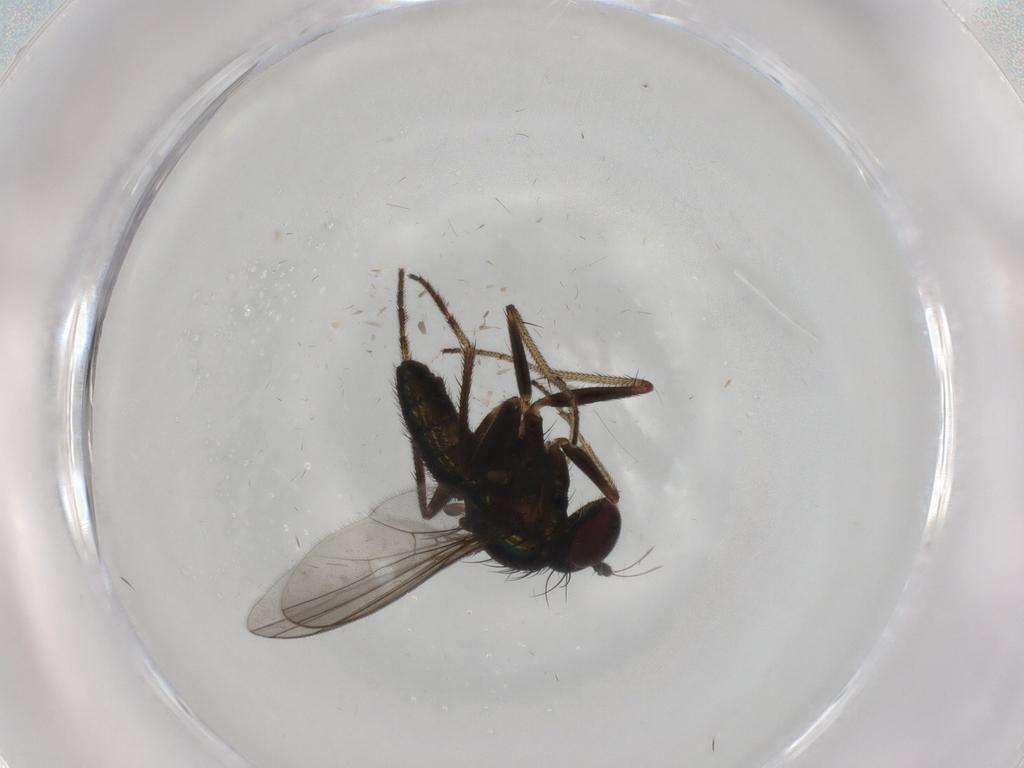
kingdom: Animalia
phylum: Arthropoda
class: Insecta
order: Diptera
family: Dolichopodidae
